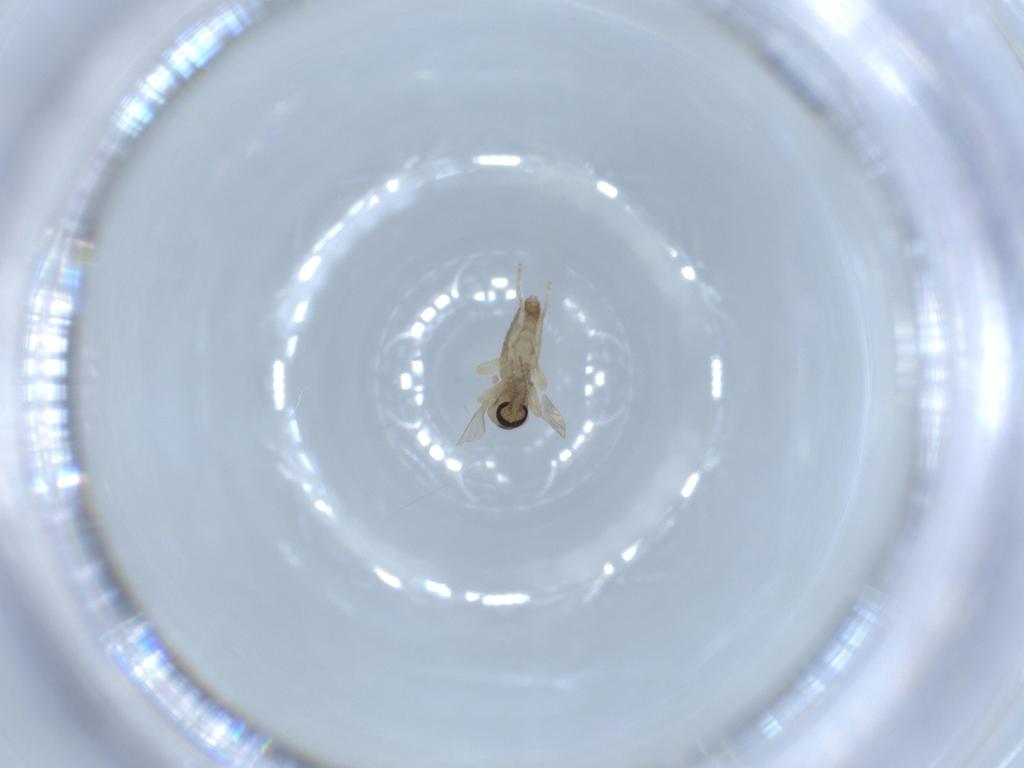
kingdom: Animalia
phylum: Arthropoda
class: Insecta
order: Diptera
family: Ceratopogonidae
